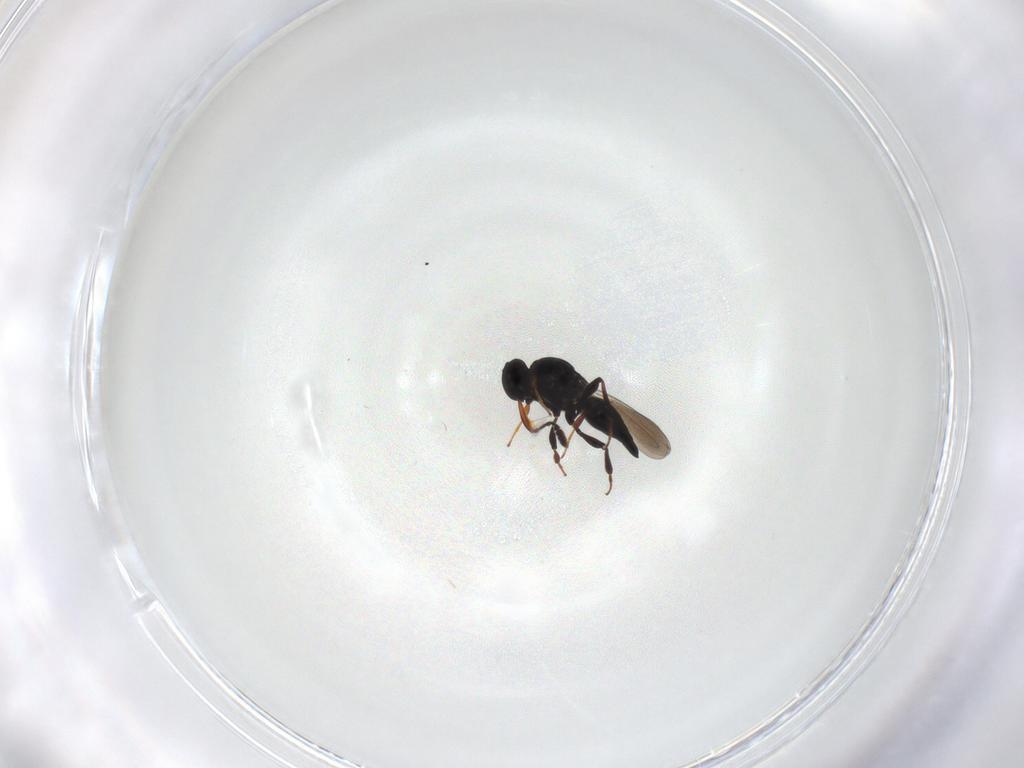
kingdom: Animalia
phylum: Arthropoda
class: Insecta
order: Hymenoptera
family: Platygastridae
